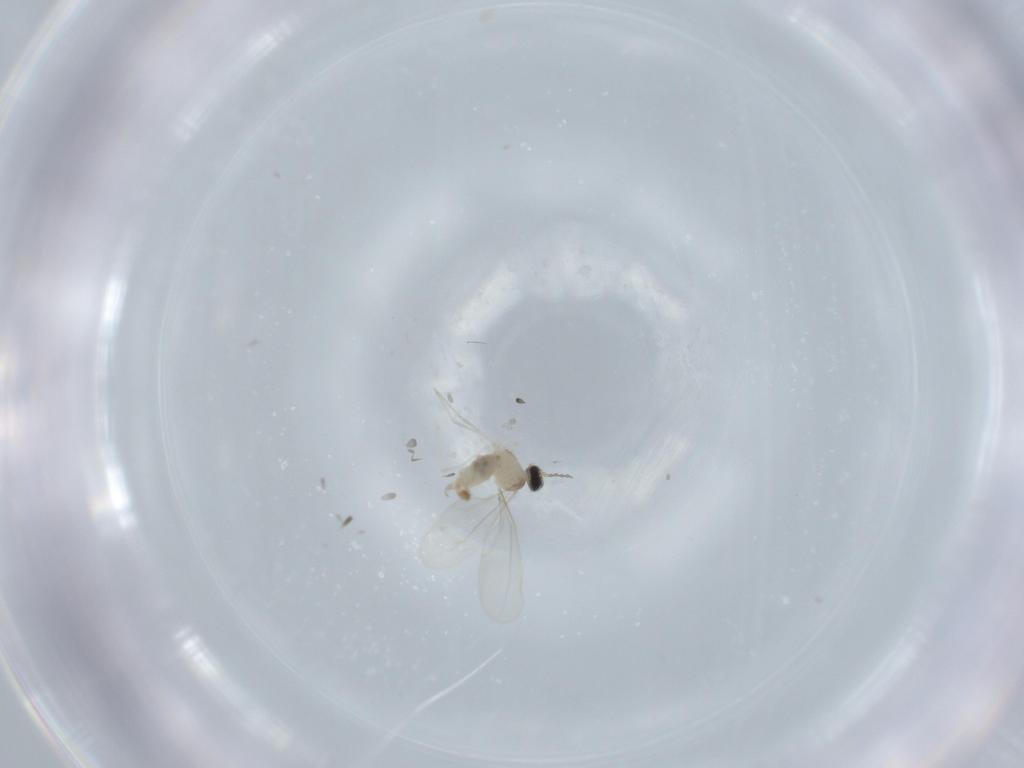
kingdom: Animalia
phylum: Arthropoda
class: Insecta
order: Diptera
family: Cecidomyiidae
